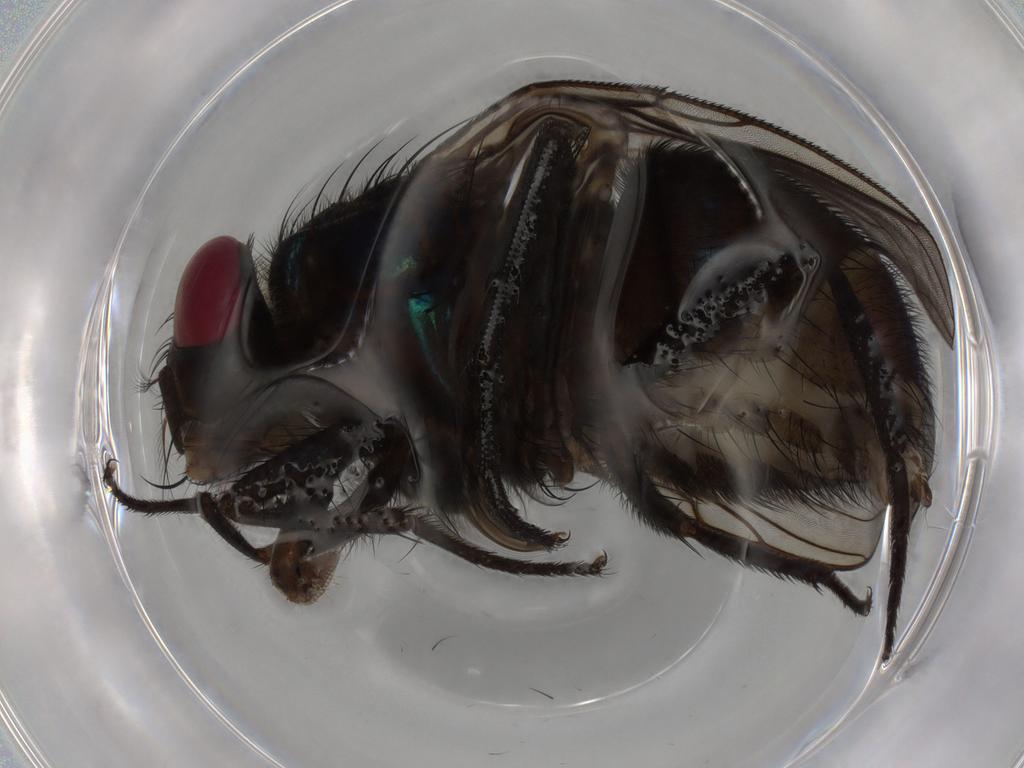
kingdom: Animalia
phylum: Arthropoda
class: Insecta
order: Diptera
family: Calliphoridae
